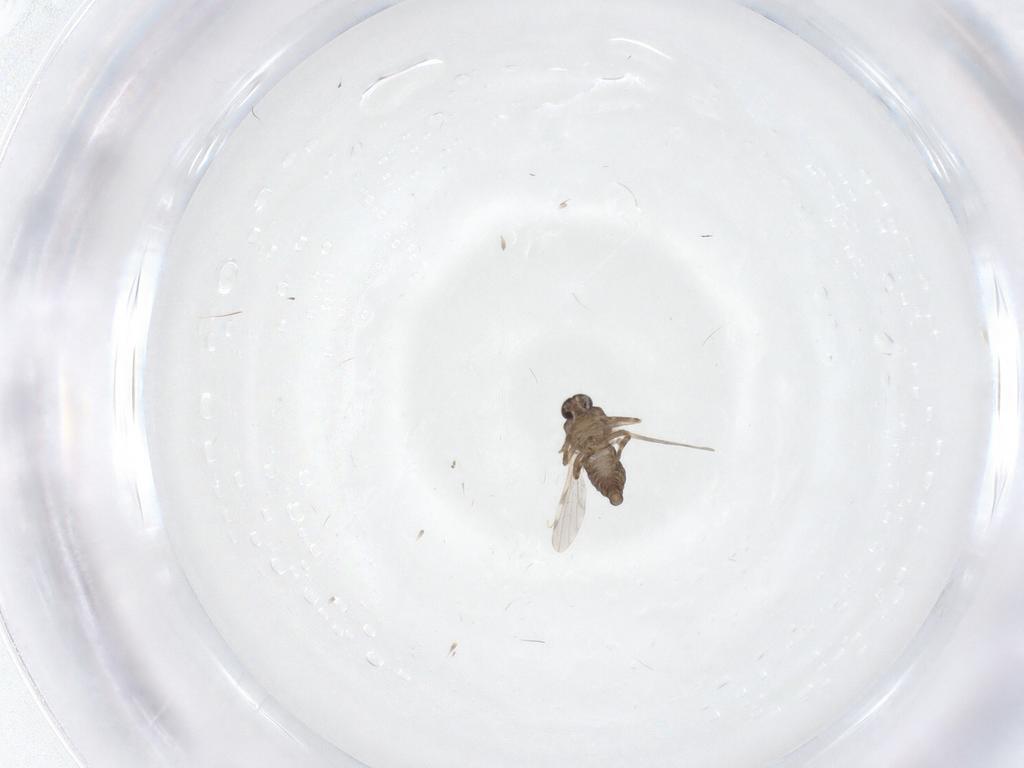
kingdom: Animalia
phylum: Arthropoda
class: Insecta
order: Diptera
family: Ceratopogonidae
